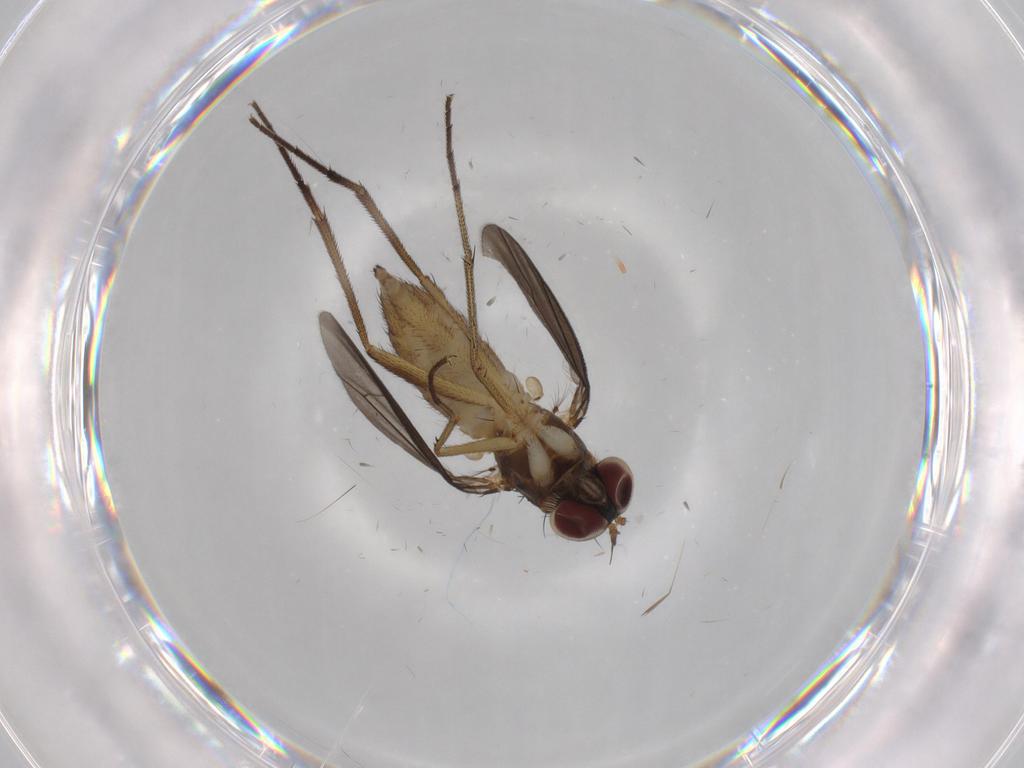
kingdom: Animalia
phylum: Arthropoda
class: Insecta
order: Diptera
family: Dolichopodidae
